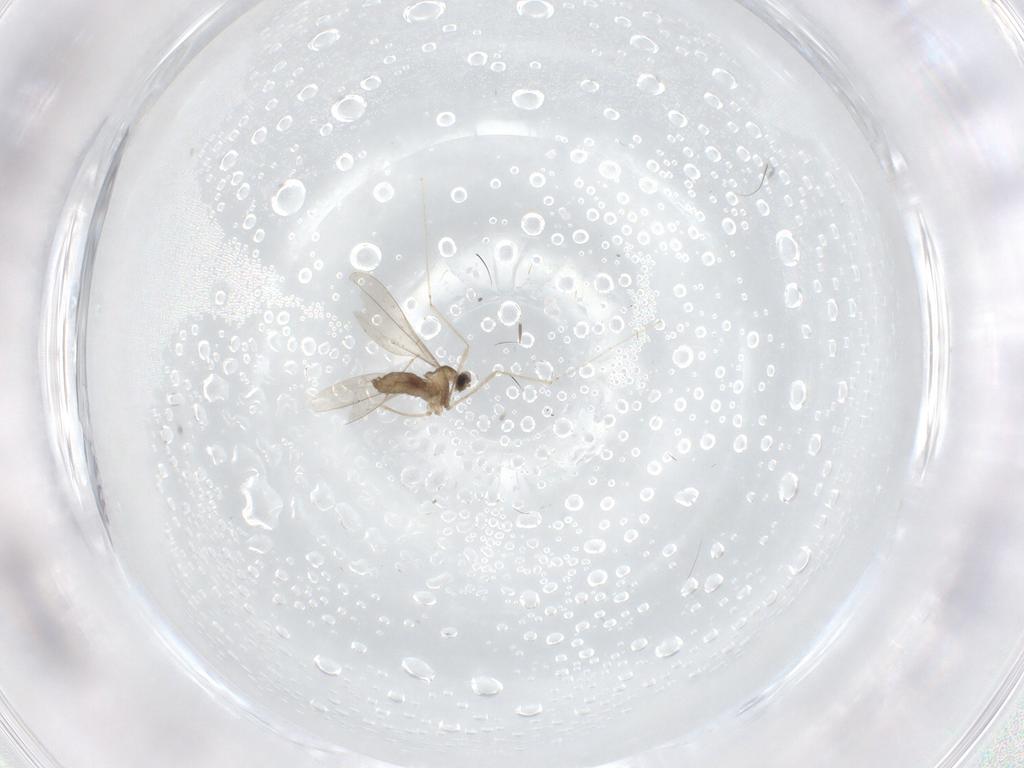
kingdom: Animalia
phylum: Arthropoda
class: Insecta
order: Diptera
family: Cecidomyiidae
